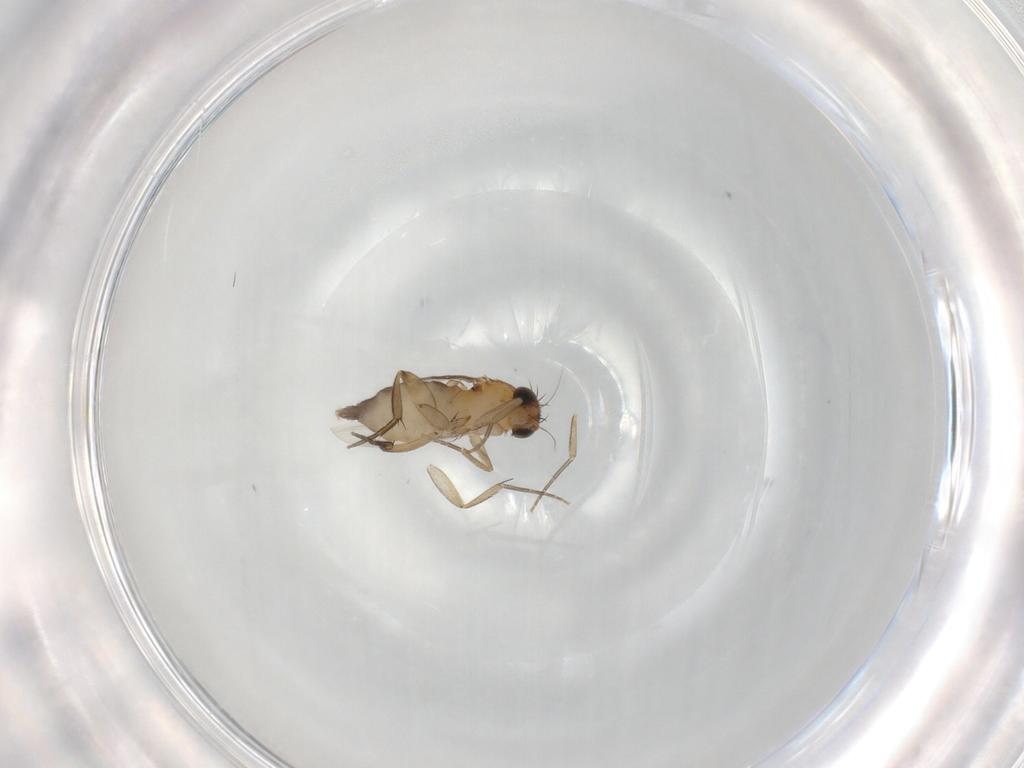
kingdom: Animalia
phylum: Arthropoda
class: Insecta
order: Diptera
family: Phoridae
